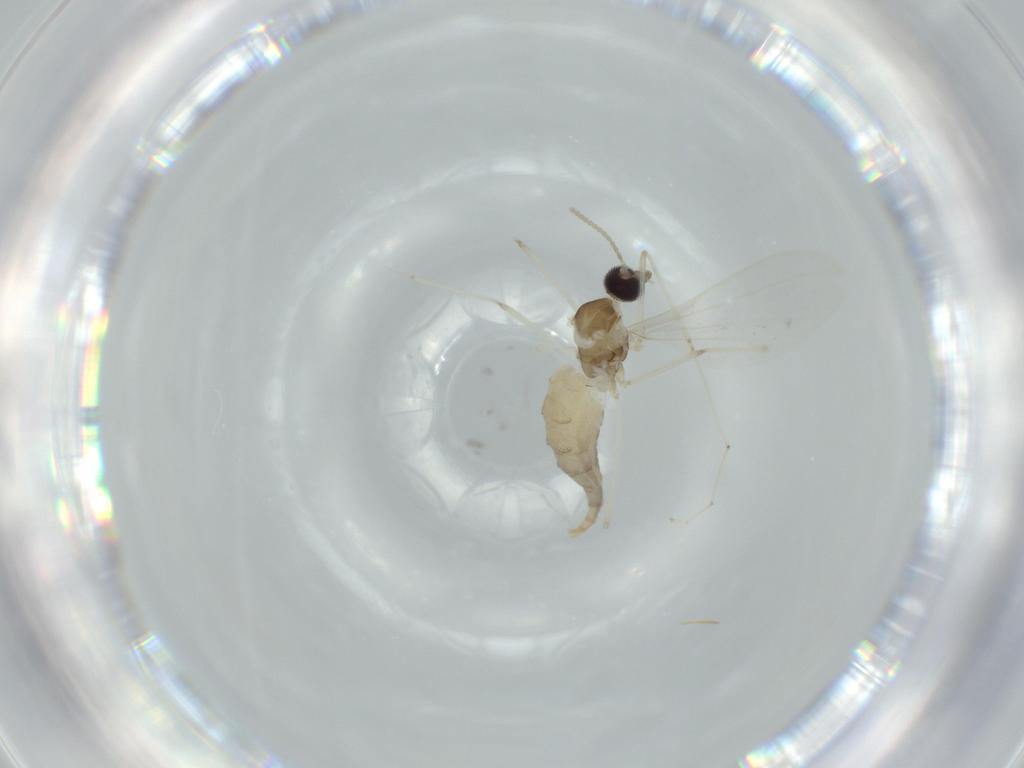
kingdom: Animalia
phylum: Arthropoda
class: Insecta
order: Diptera
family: Cecidomyiidae
